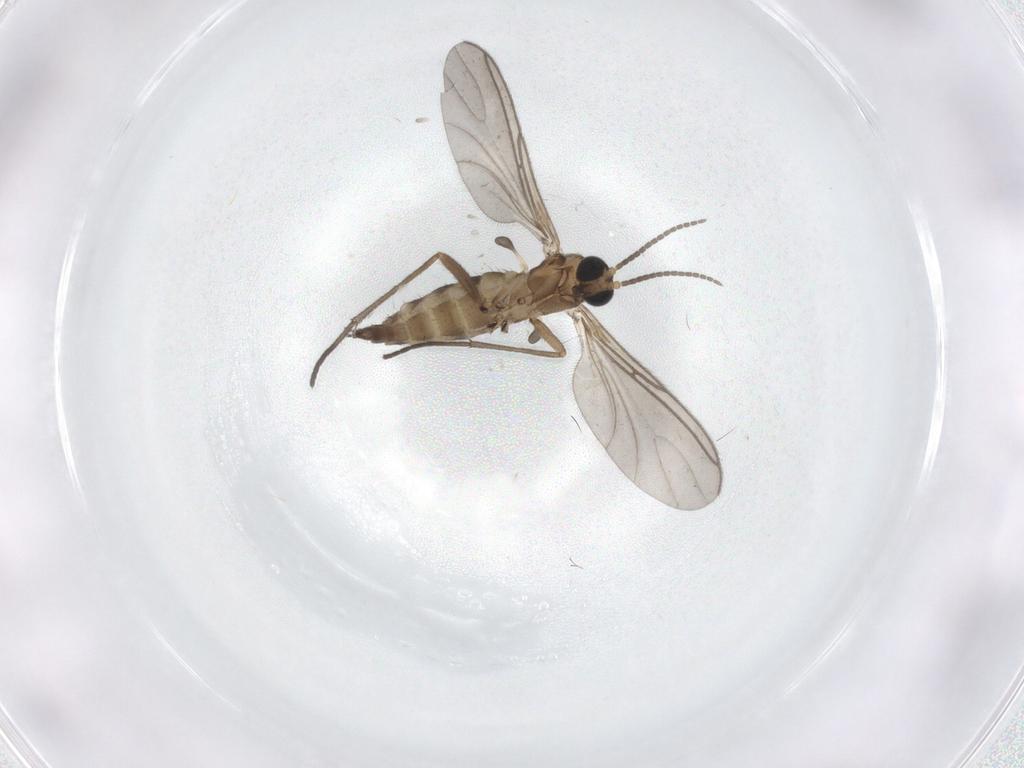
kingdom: Animalia
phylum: Arthropoda
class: Insecta
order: Diptera
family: Sciaridae
